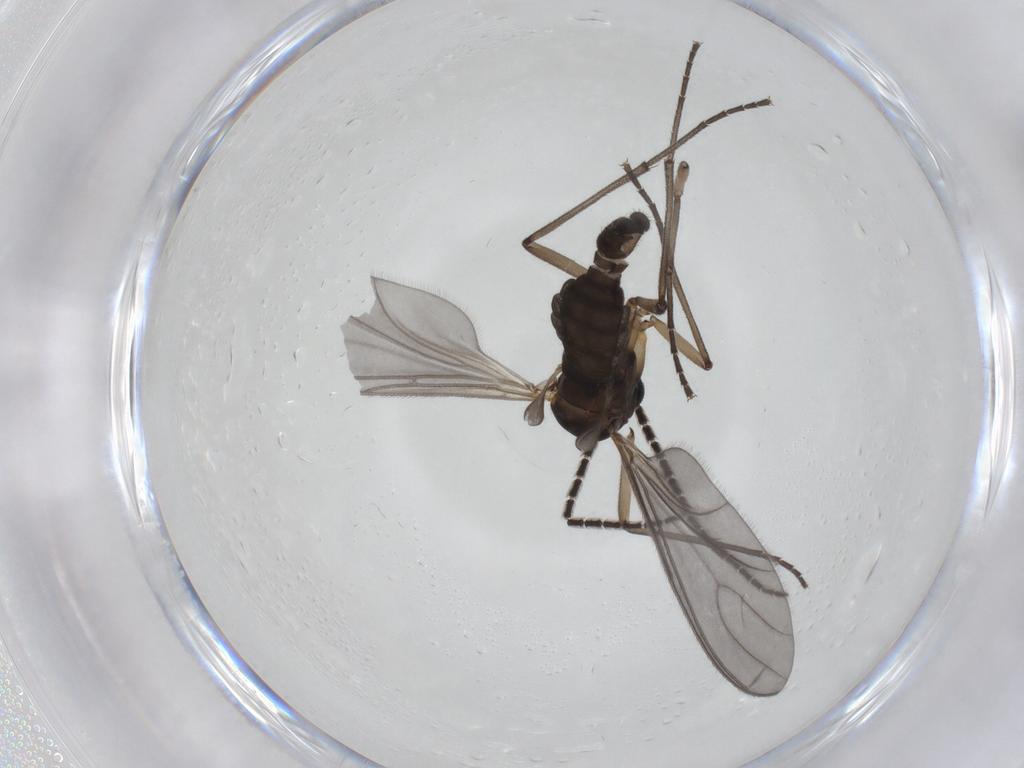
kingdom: Animalia
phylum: Arthropoda
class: Insecta
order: Diptera
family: Sciaridae
